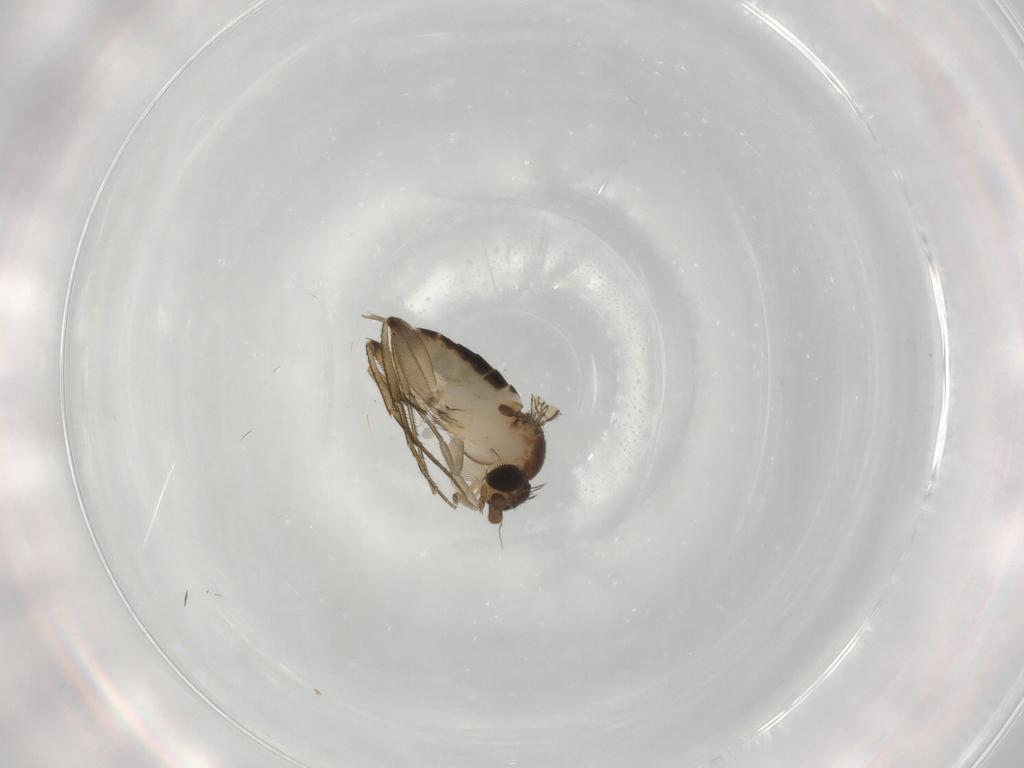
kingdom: Animalia
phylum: Arthropoda
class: Insecta
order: Diptera
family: Phoridae
